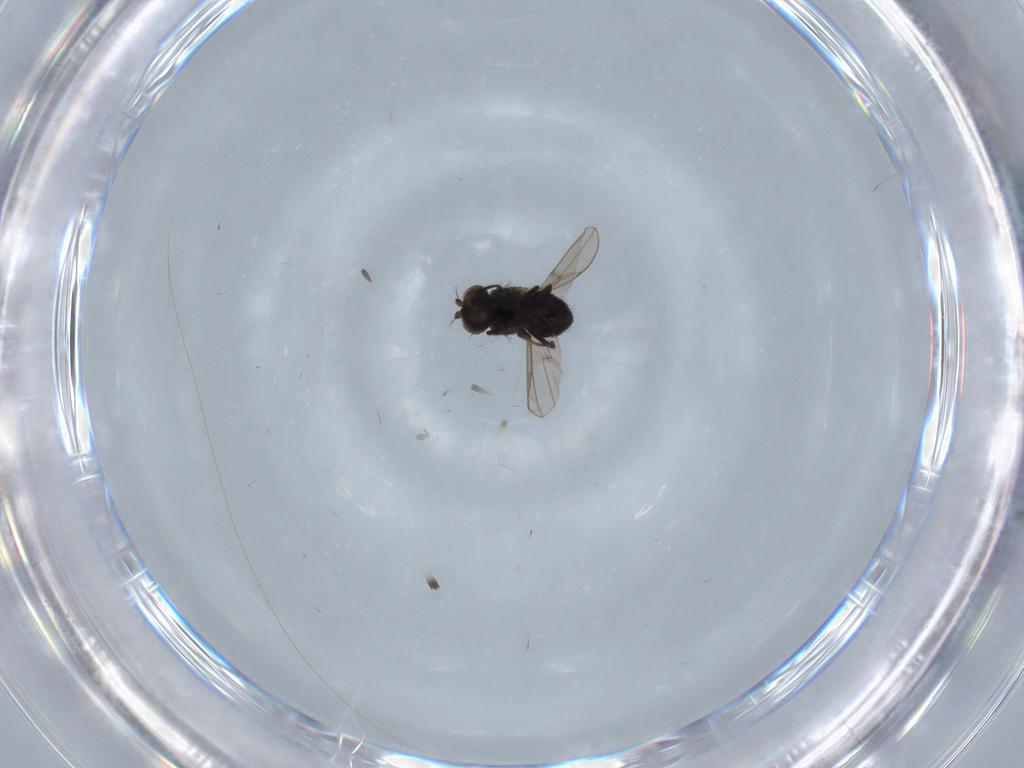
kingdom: Animalia
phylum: Arthropoda
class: Insecta
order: Diptera
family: Ephydridae
